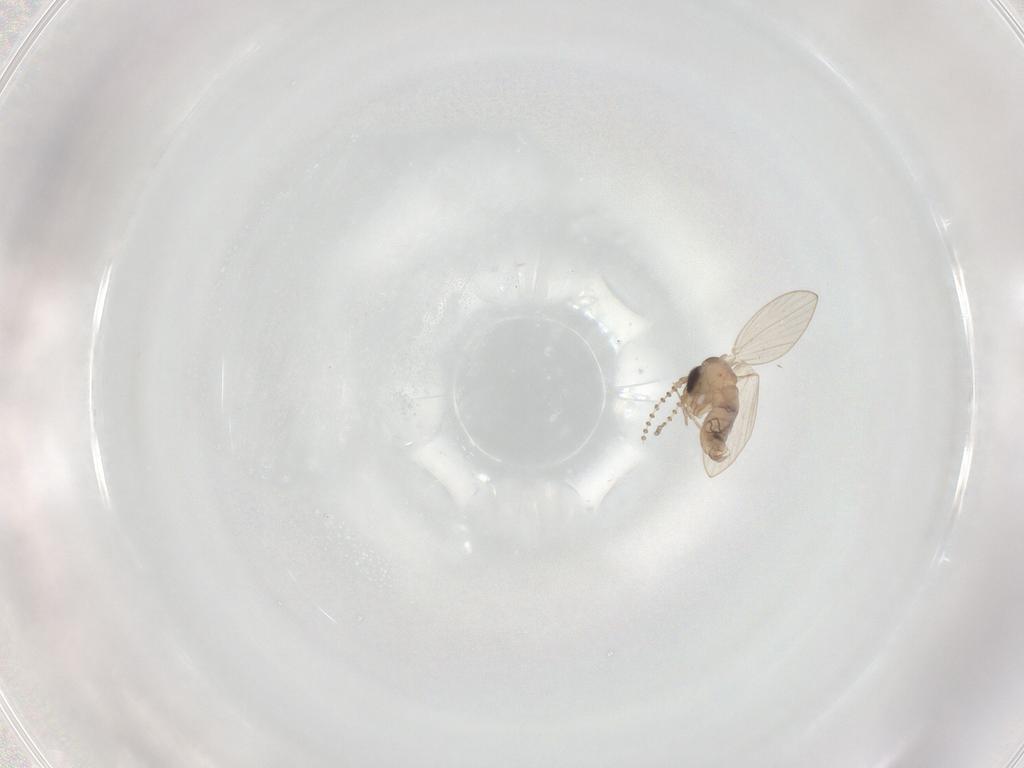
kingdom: Animalia
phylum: Arthropoda
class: Insecta
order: Diptera
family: Psychodidae
